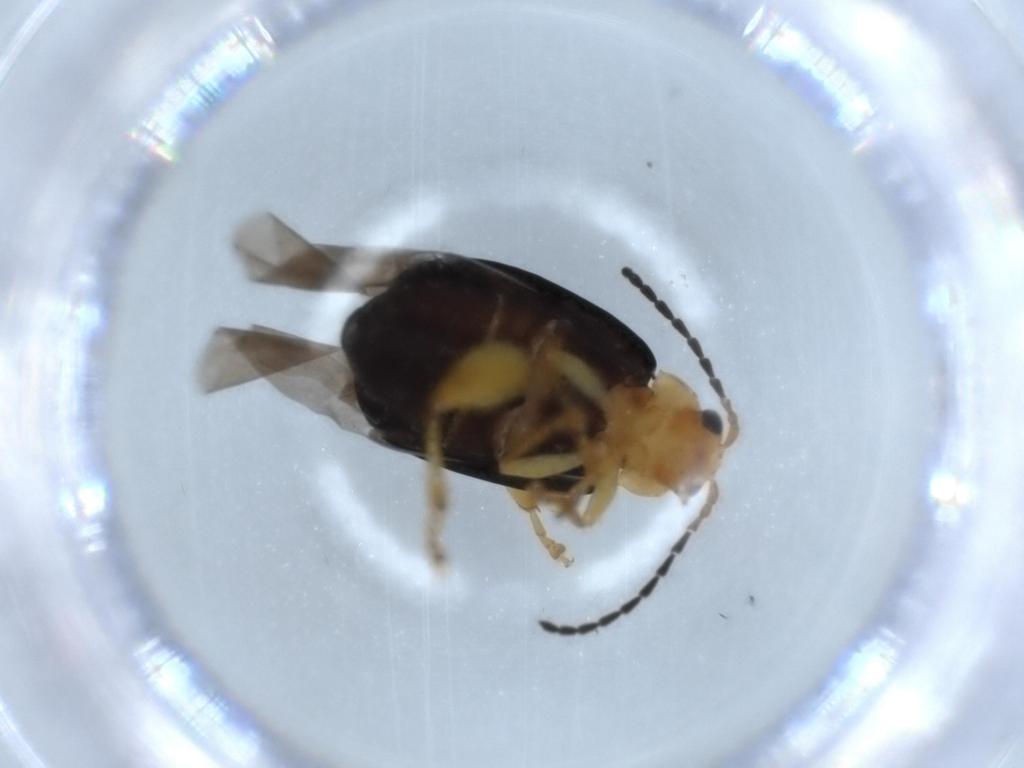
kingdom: Animalia
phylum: Arthropoda
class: Insecta
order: Coleoptera
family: Chrysomelidae
